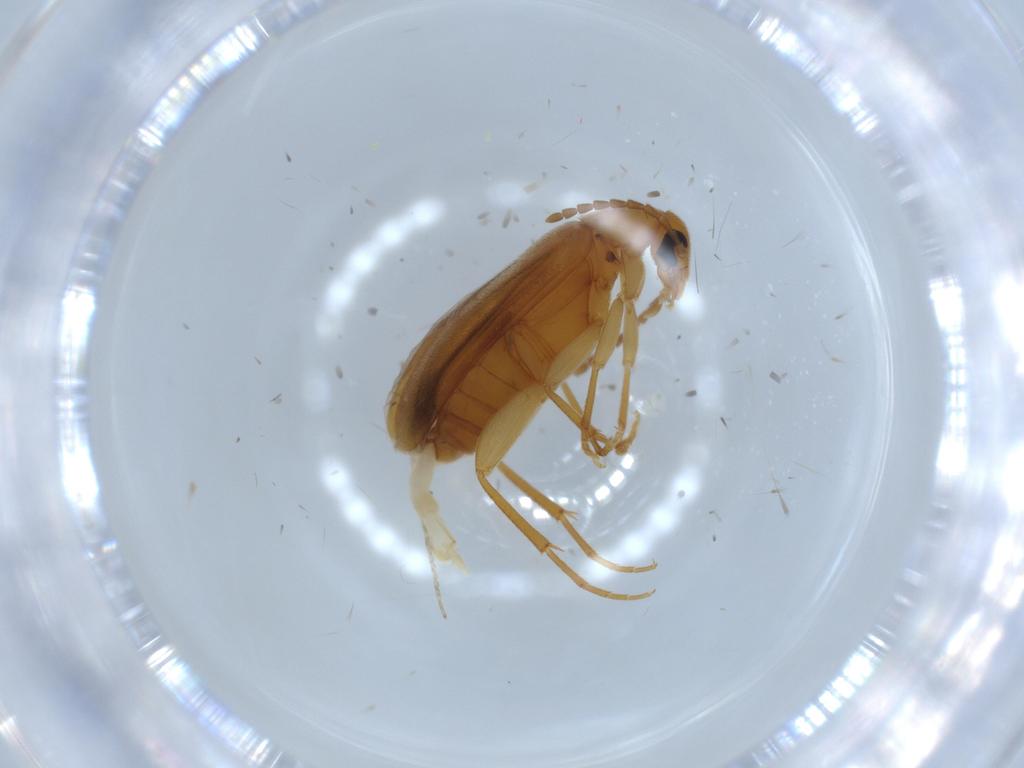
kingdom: Animalia
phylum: Arthropoda
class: Insecta
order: Coleoptera
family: Scraptiidae
